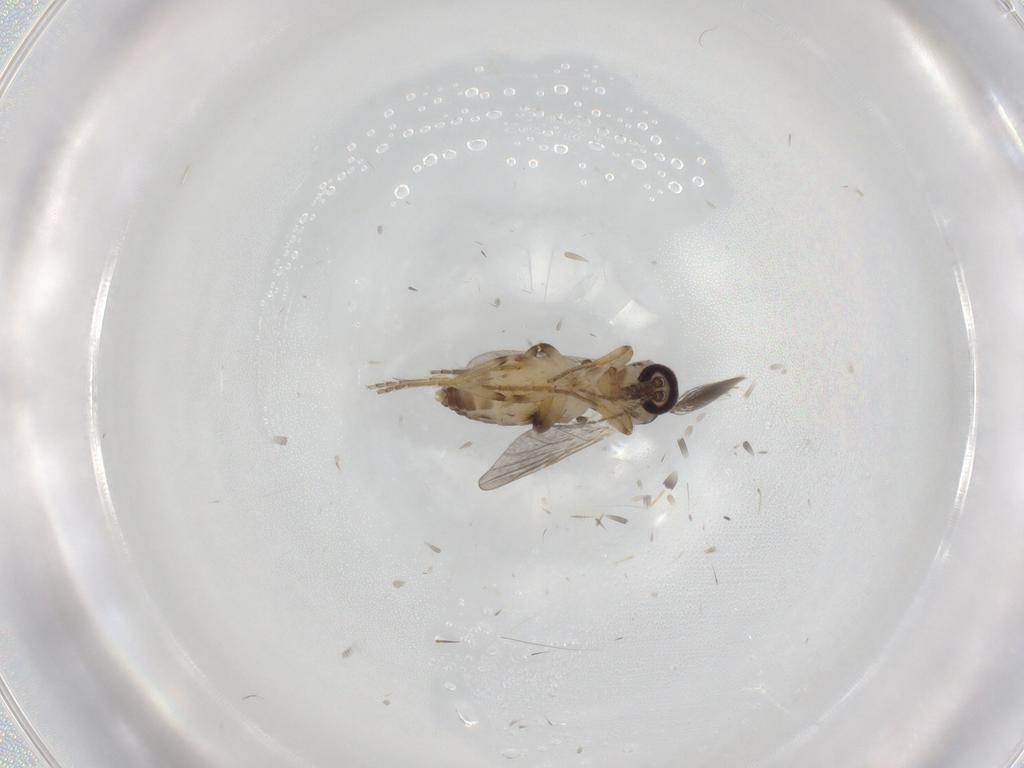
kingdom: Animalia
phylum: Arthropoda
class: Insecta
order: Diptera
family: Ceratopogonidae
